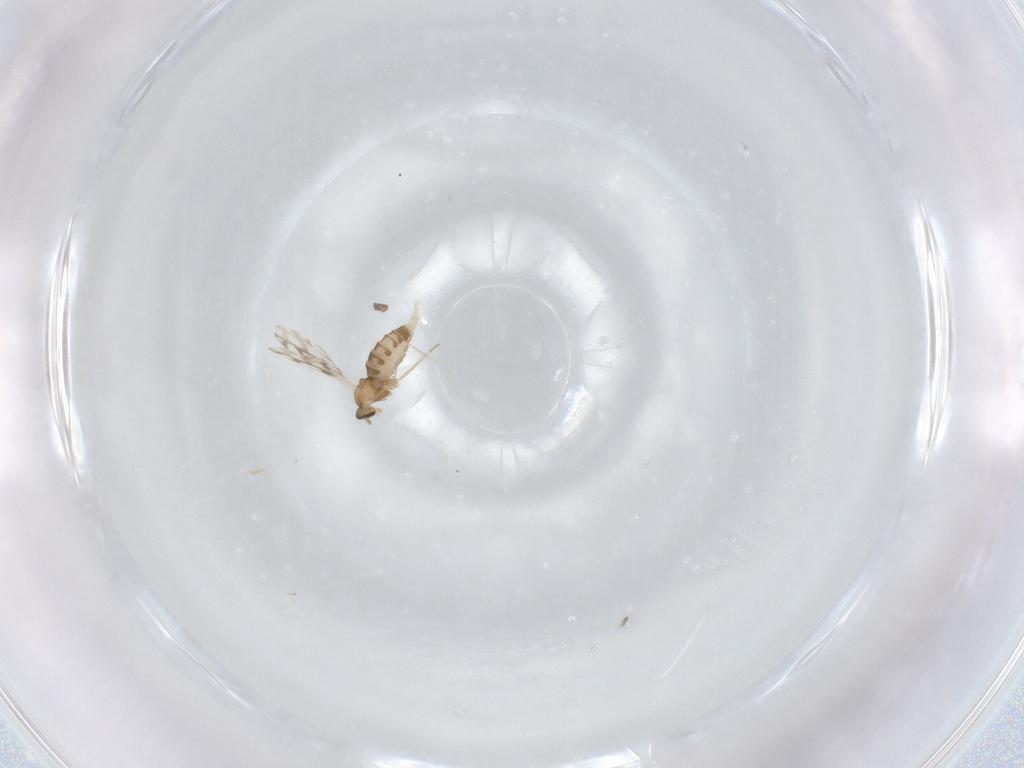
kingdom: Animalia
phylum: Arthropoda
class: Insecta
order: Diptera
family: Cecidomyiidae
